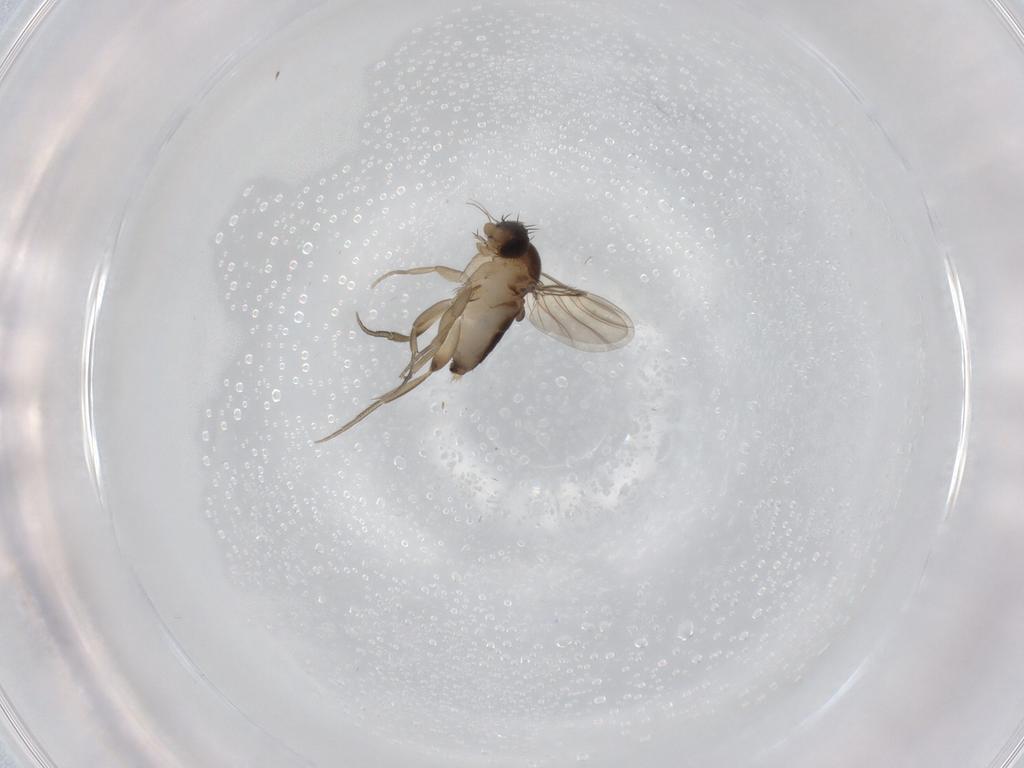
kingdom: Animalia
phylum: Arthropoda
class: Insecta
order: Diptera
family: Phoridae
